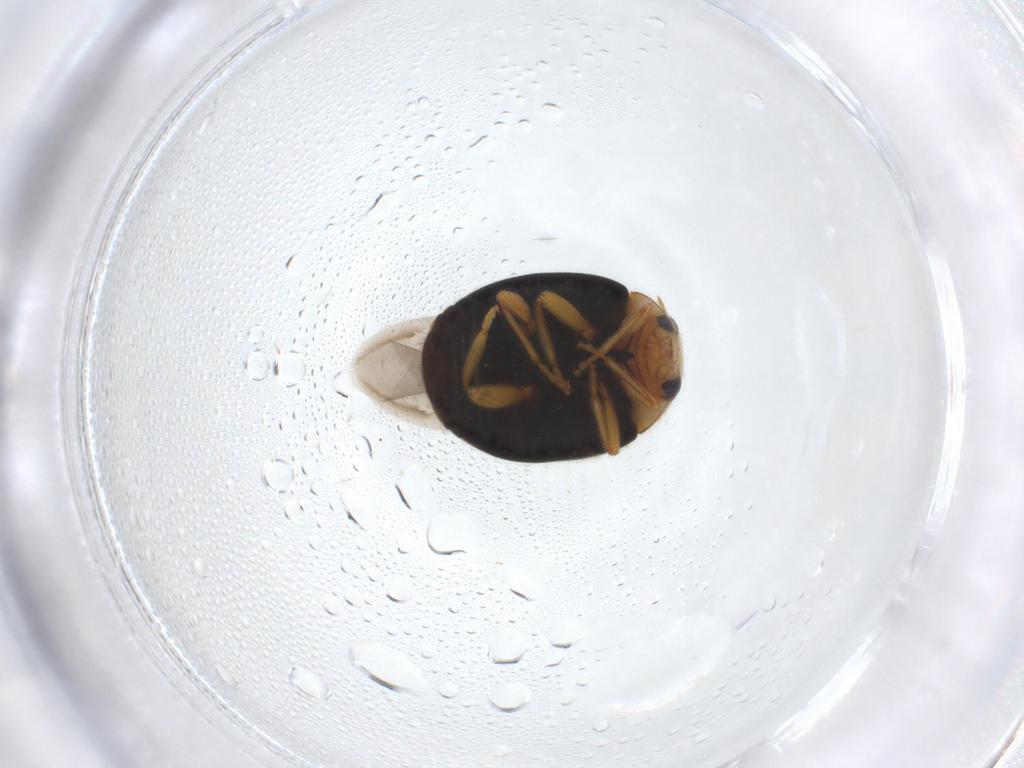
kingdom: Animalia
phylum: Arthropoda
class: Insecta
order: Coleoptera
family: Coccinellidae
